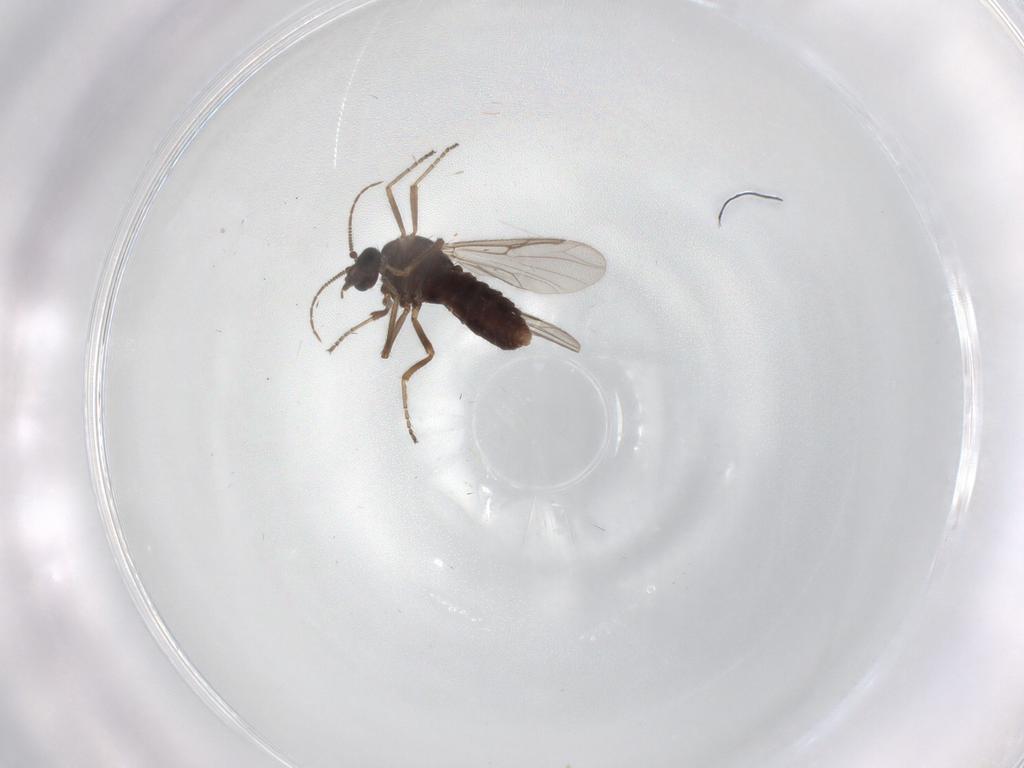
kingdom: Animalia
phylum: Arthropoda
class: Insecta
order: Diptera
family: Tabanidae
